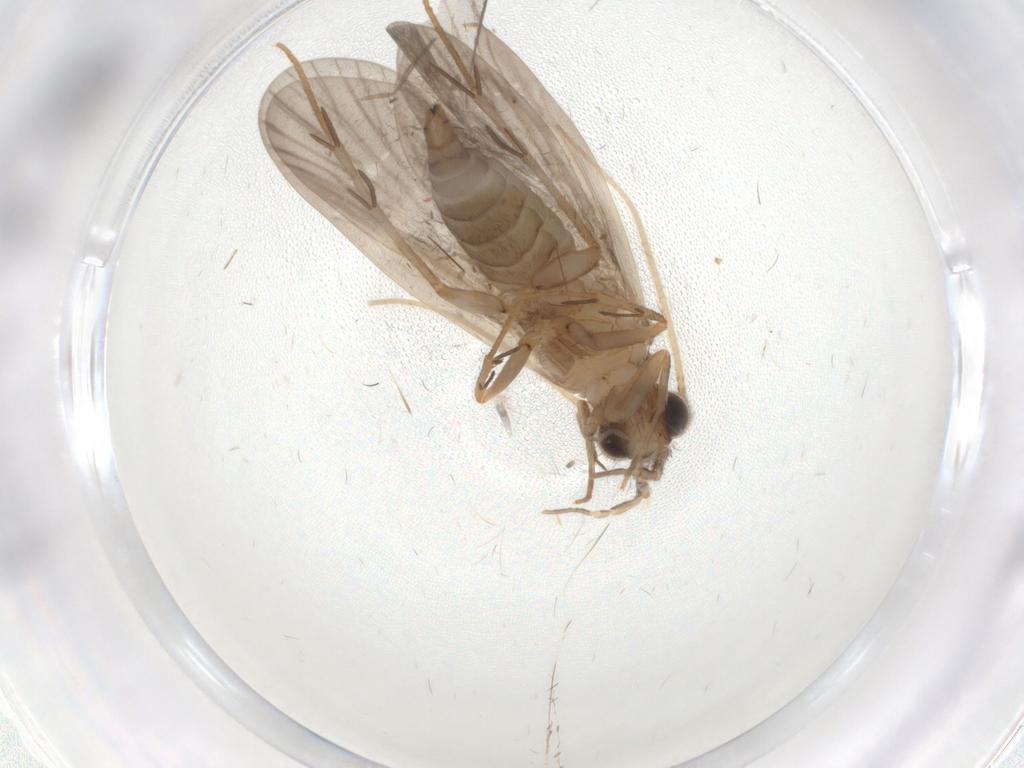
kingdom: Animalia
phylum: Arthropoda
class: Insecta
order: Trichoptera
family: Philopotamidae
